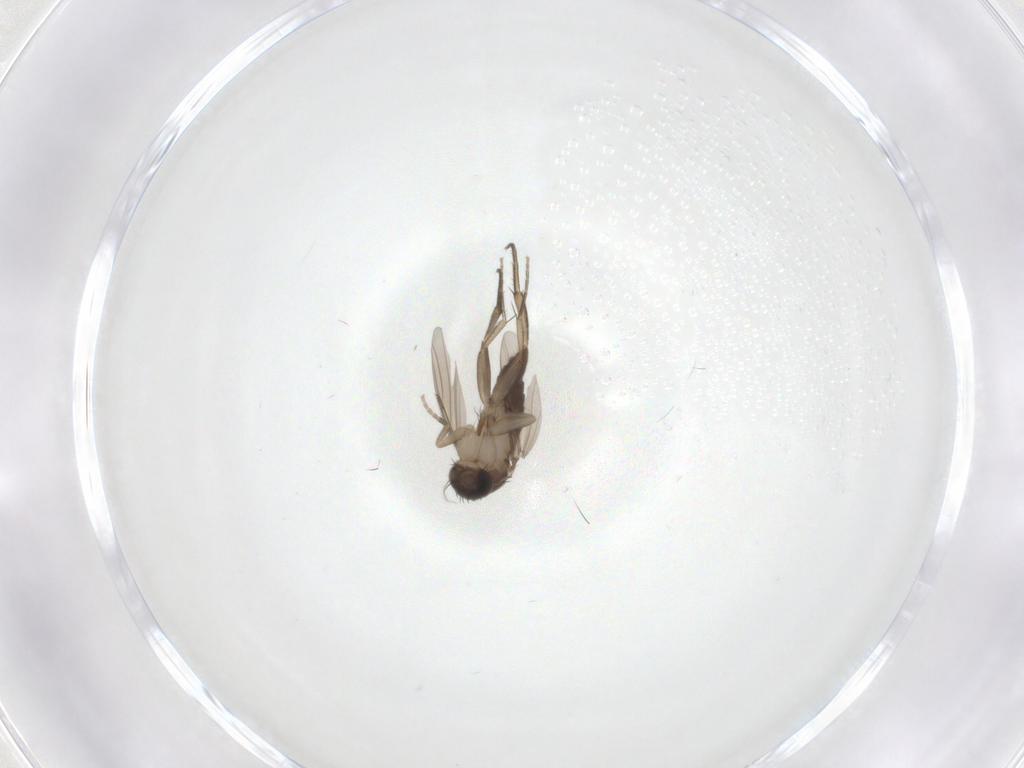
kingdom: Animalia
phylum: Arthropoda
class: Insecta
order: Diptera
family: Phoridae
